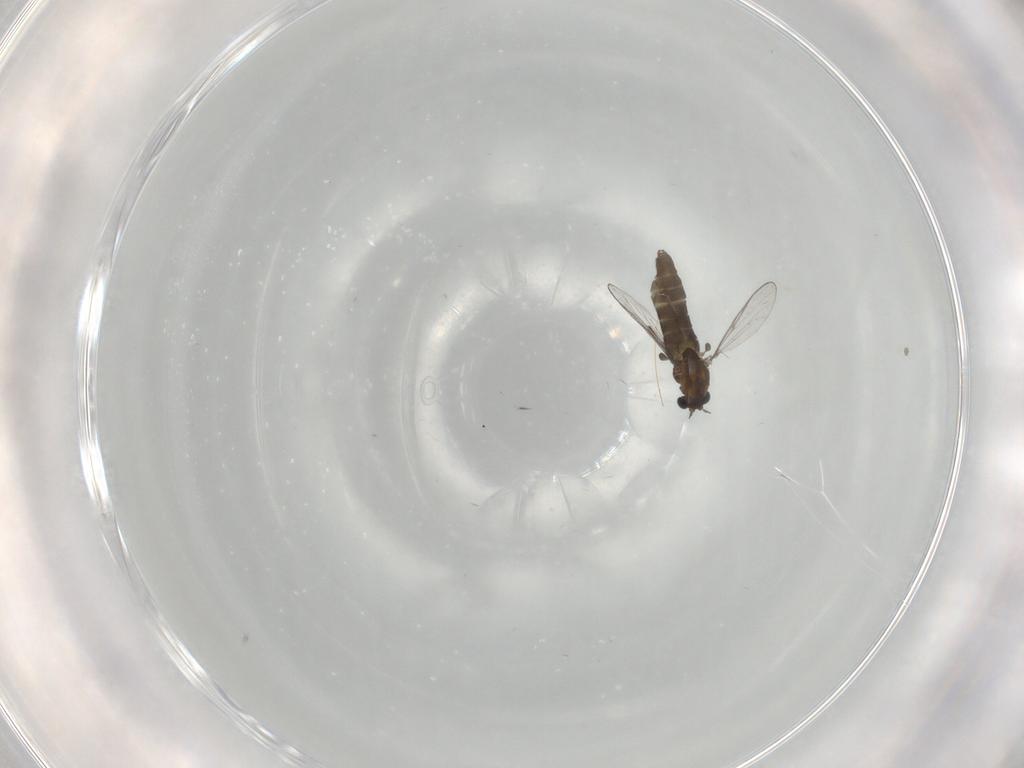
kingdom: Animalia
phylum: Arthropoda
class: Insecta
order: Diptera
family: Chironomidae
